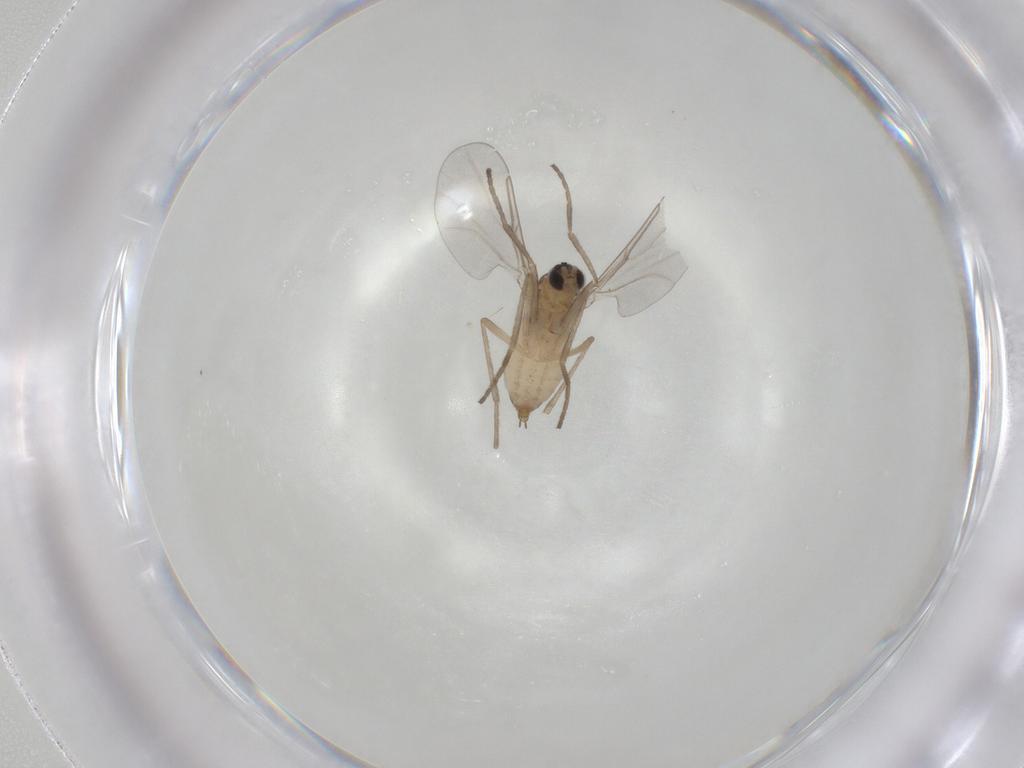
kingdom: Animalia
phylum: Arthropoda
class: Insecta
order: Diptera
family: Cecidomyiidae
